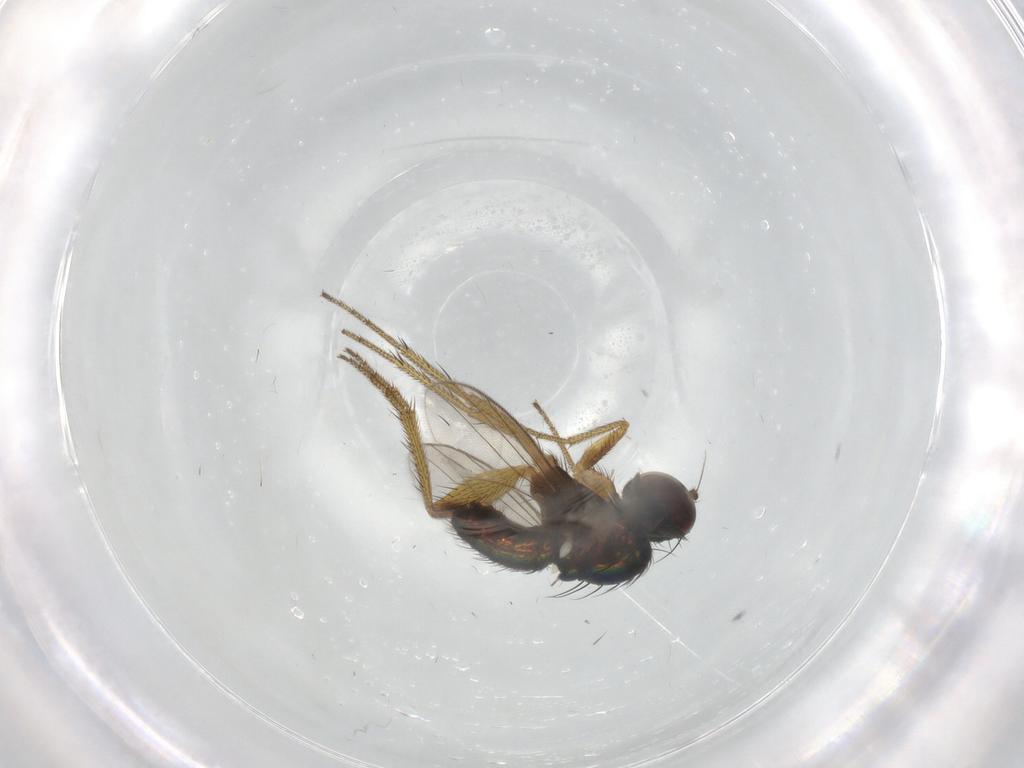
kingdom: Animalia
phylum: Arthropoda
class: Insecta
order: Diptera
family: Dolichopodidae
